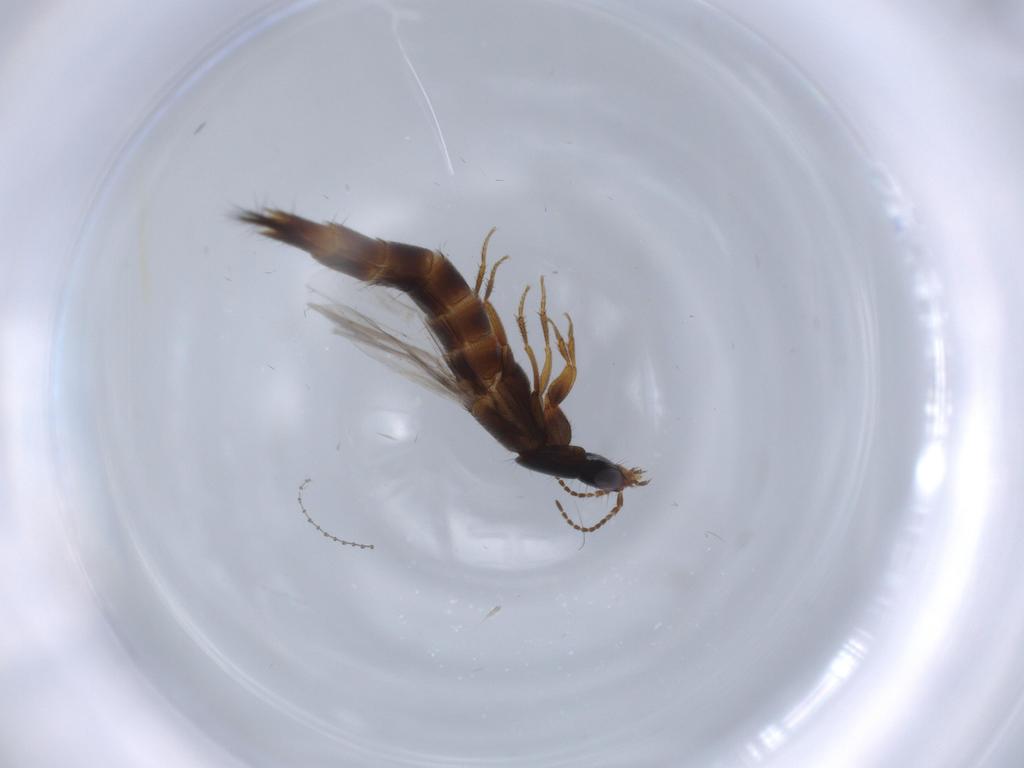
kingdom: Animalia
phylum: Arthropoda
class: Insecta
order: Coleoptera
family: Staphylinidae
